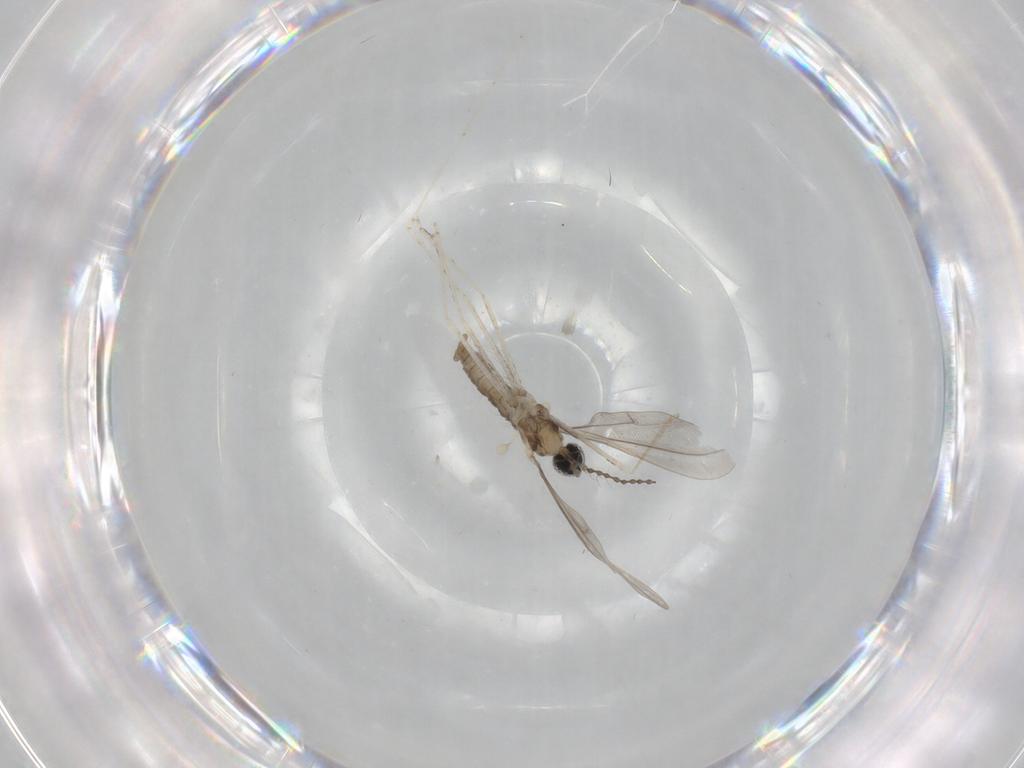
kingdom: Animalia
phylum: Arthropoda
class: Insecta
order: Diptera
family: Cecidomyiidae
